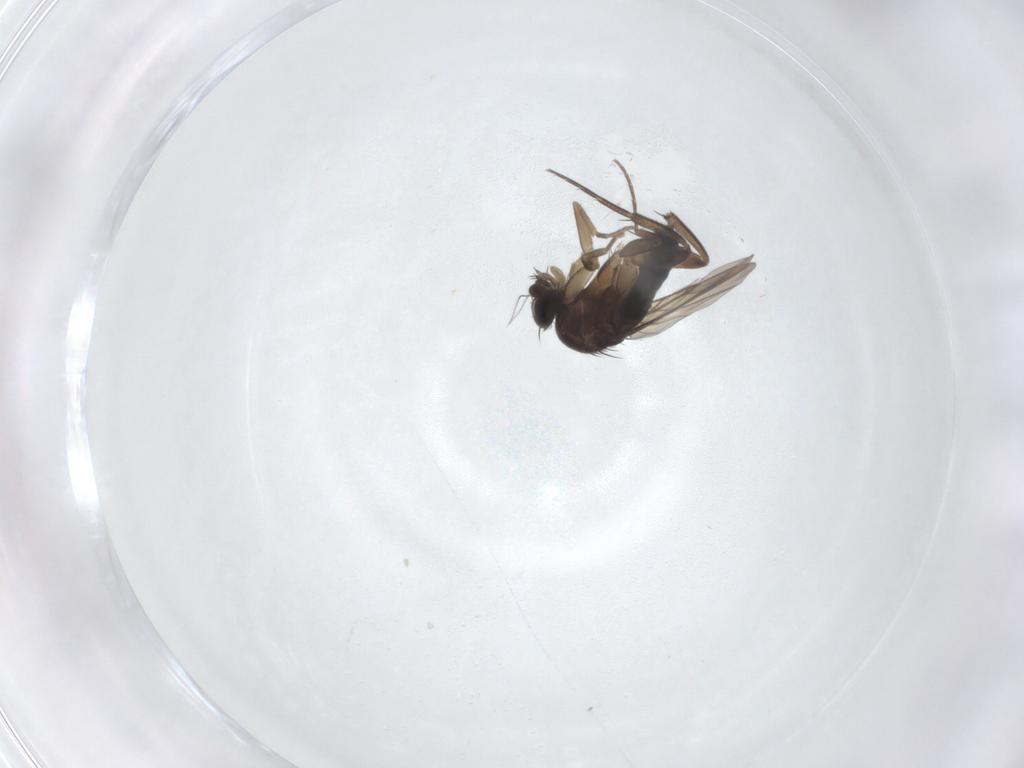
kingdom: Animalia
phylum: Arthropoda
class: Insecta
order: Diptera
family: Phoridae
